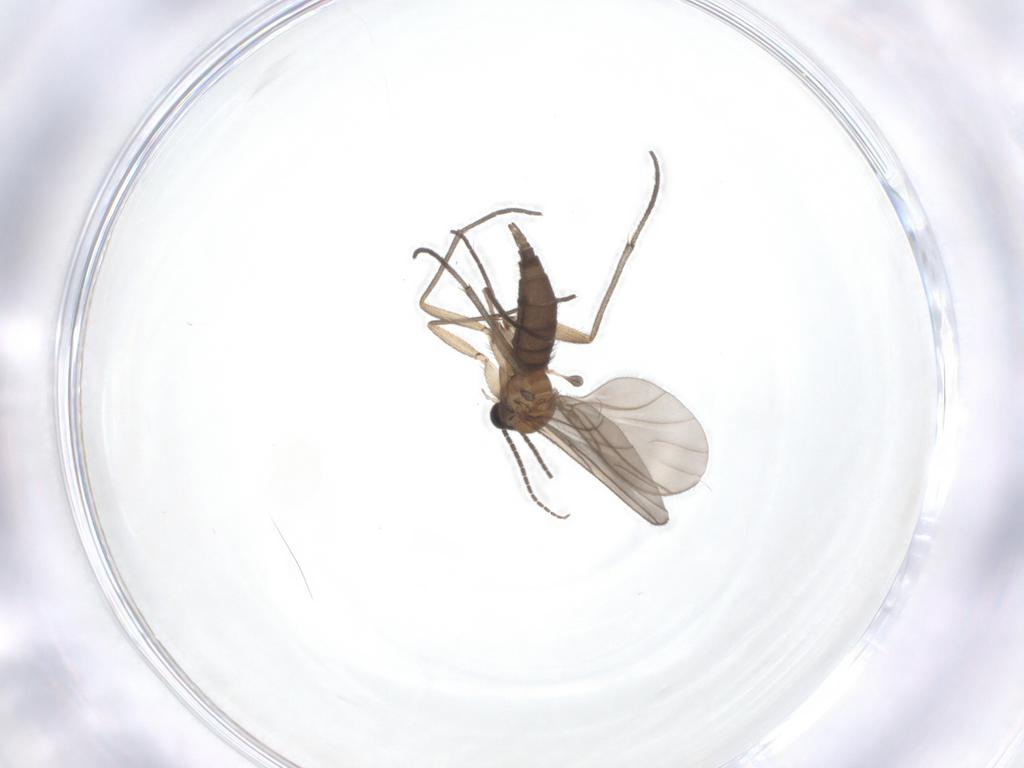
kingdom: Animalia
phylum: Arthropoda
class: Insecta
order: Diptera
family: Sciaridae
